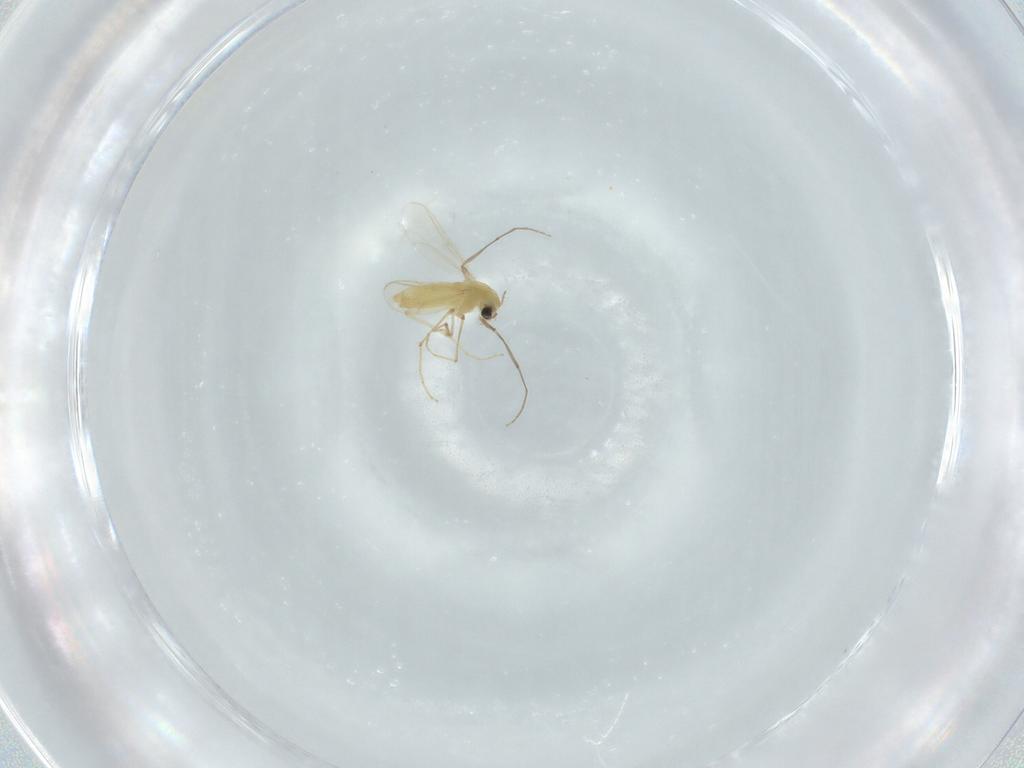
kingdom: Animalia
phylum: Arthropoda
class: Insecta
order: Diptera
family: Chironomidae
